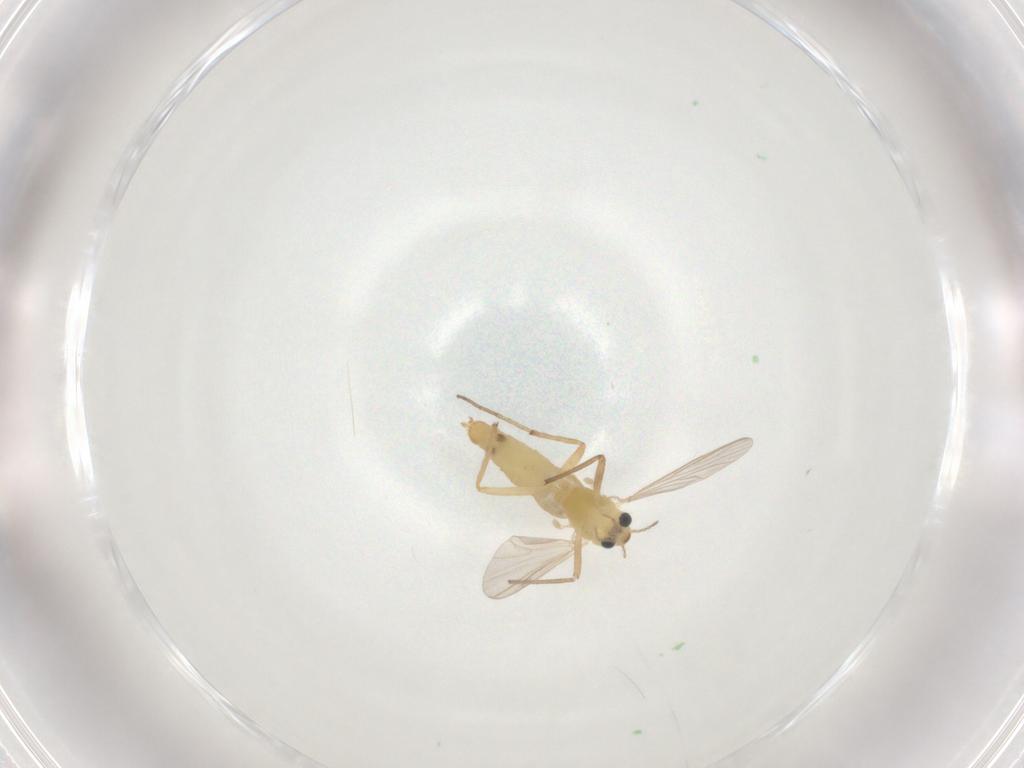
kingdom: Animalia
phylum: Arthropoda
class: Insecta
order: Diptera
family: Chironomidae
